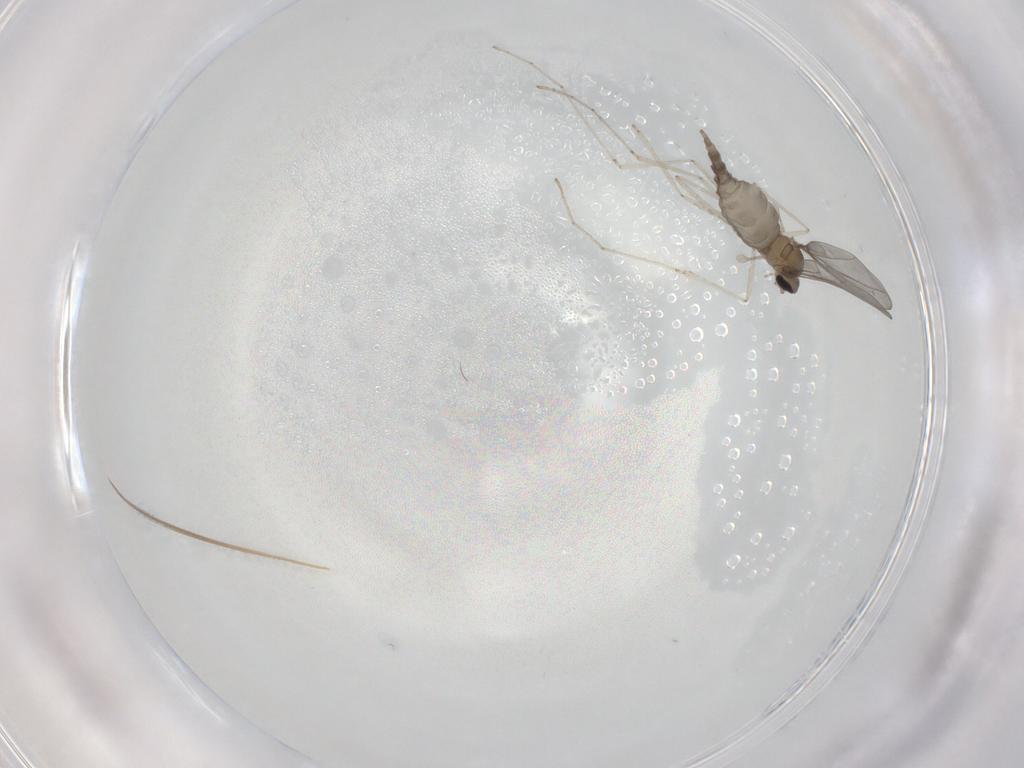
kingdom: Animalia
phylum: Arthropoda
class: Insecta
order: Diptera
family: Cecidomyiidae
